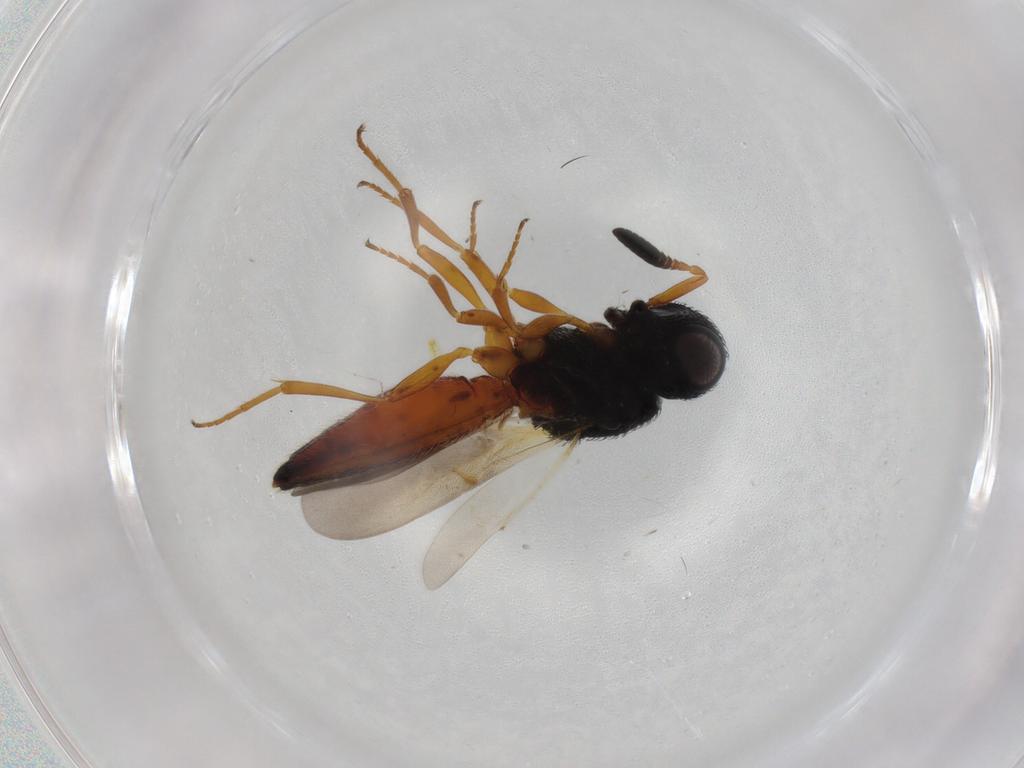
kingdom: Animalia
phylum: Arthropoda
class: Insecta
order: Hymenoptera
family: Scelionidae
